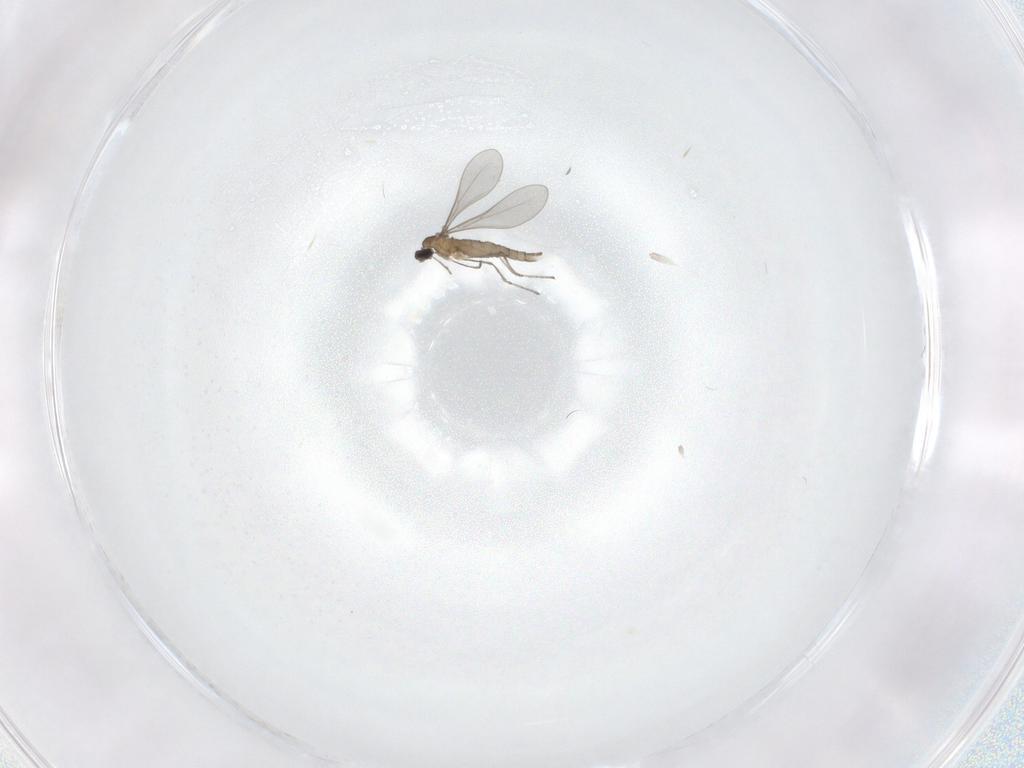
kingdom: Animalia
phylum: Arthropoda
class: Insecta
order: Diptera
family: Cecidomyiidae
